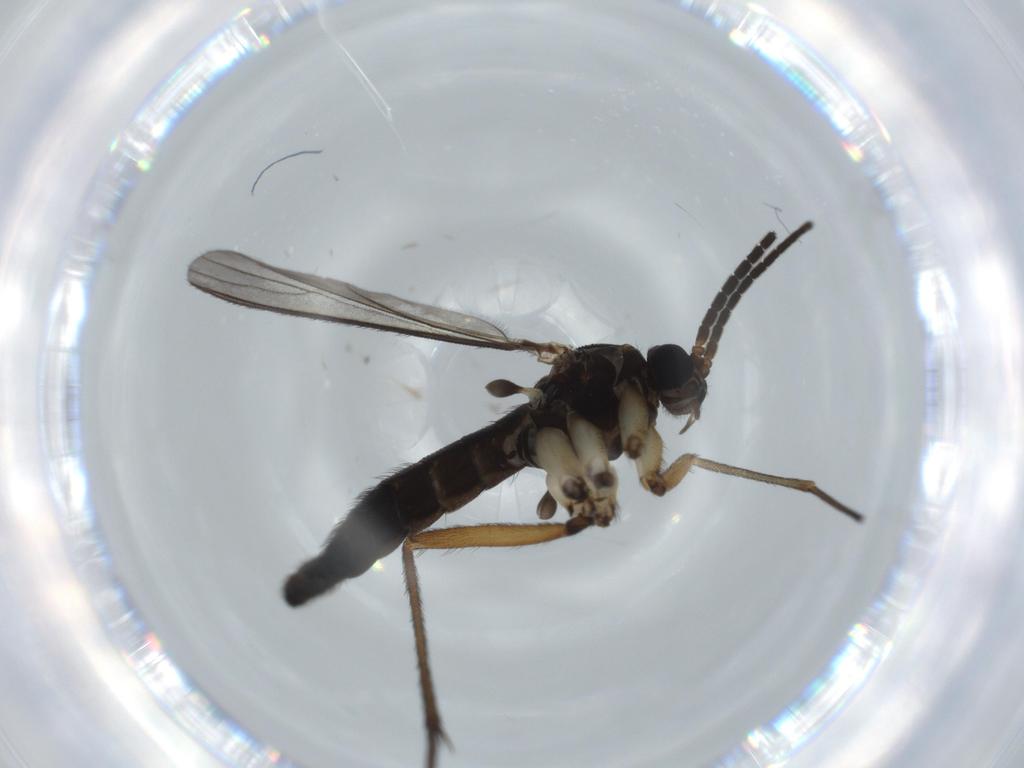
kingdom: Animalia
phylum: Arthropoda
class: Insecta
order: Diptera
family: Sciaridae
